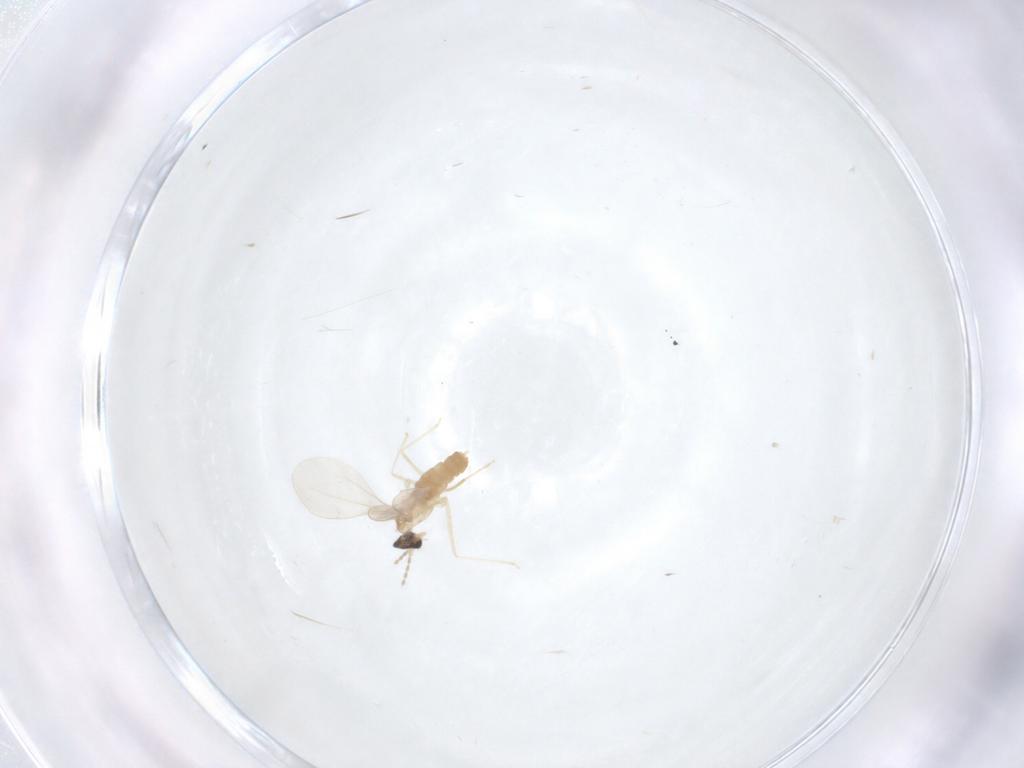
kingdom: Animalia
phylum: Arthropoda
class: Insecta
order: Diptera
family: Cecidomyiidae
